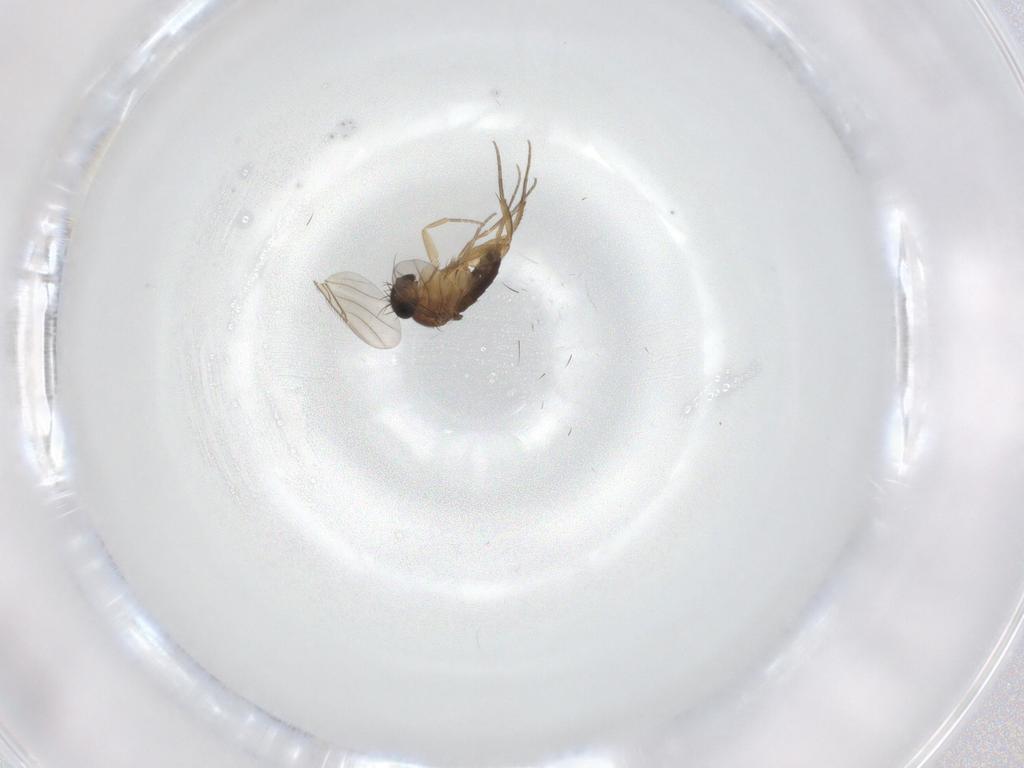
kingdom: Animalia
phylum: Arthropoda
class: Insecta
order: Diptera
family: Phoridae
